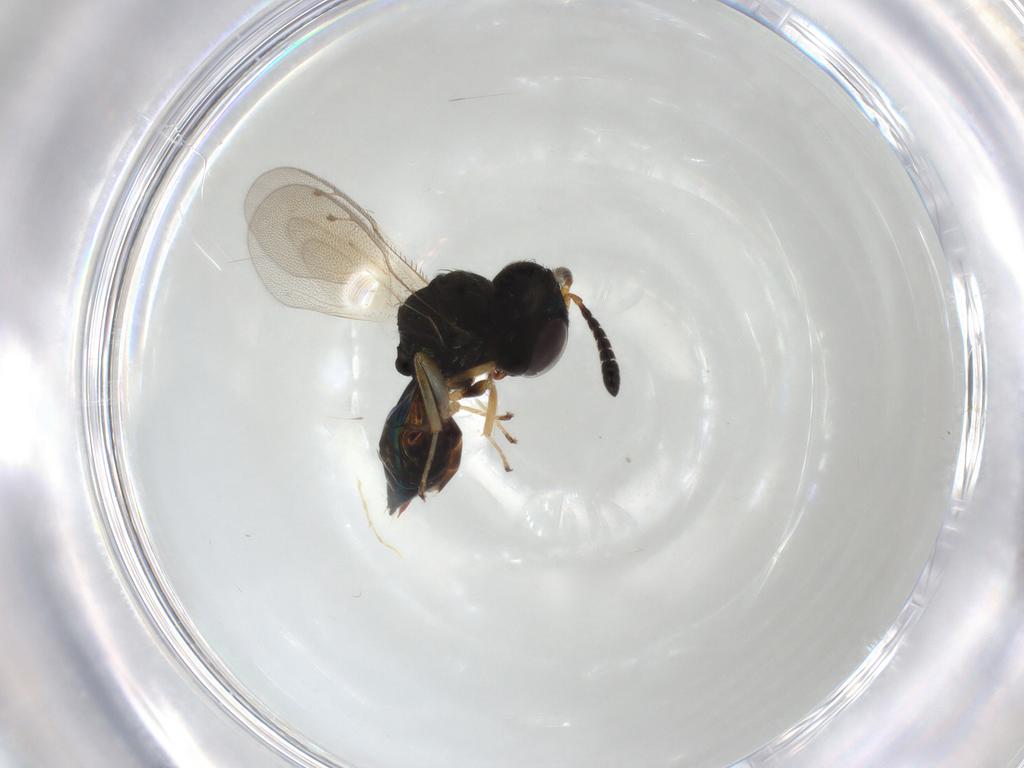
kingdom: Animalia
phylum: Arthropoda
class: Insecta
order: Hymenoptera
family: Pteromalidae
